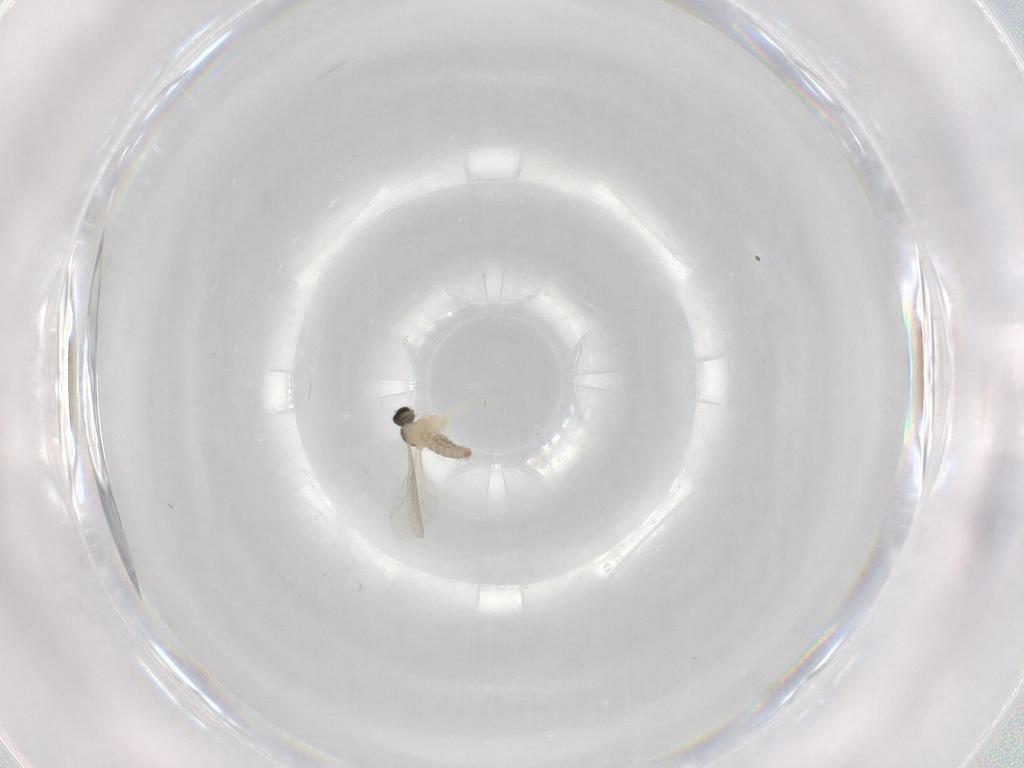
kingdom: Animalia
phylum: Arthropoda
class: Insecta
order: Diptera
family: Cecidomyiidae
